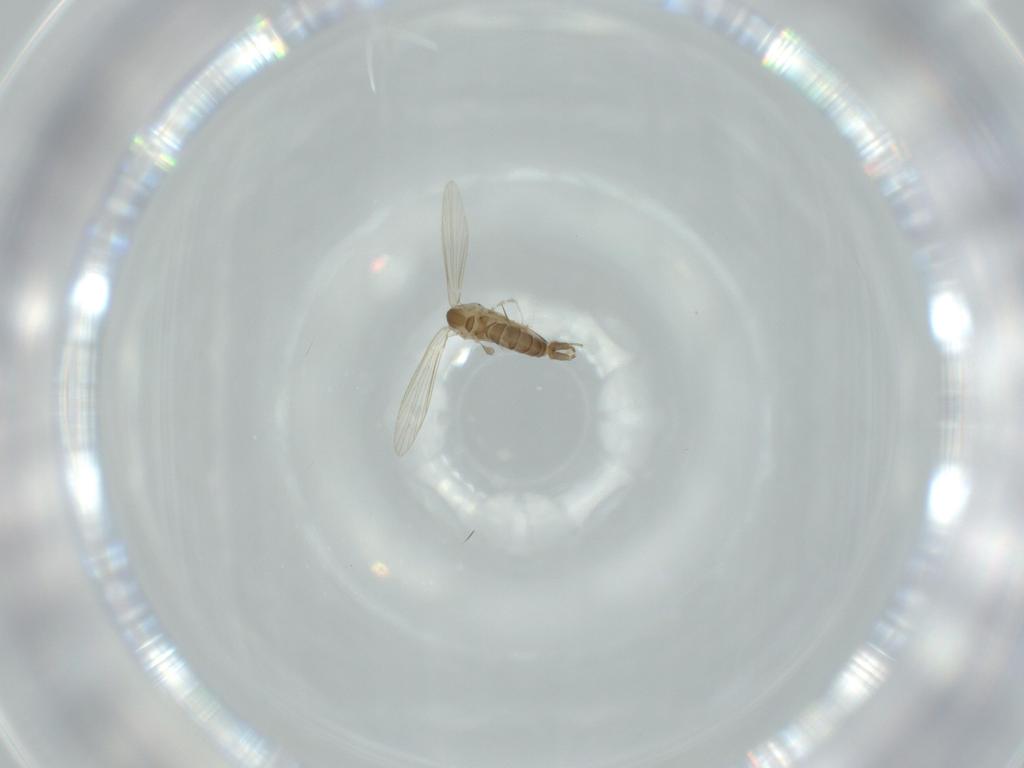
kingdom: Animalia
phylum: Arthropoda
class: Insecta
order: Diptera
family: Psychodidae
